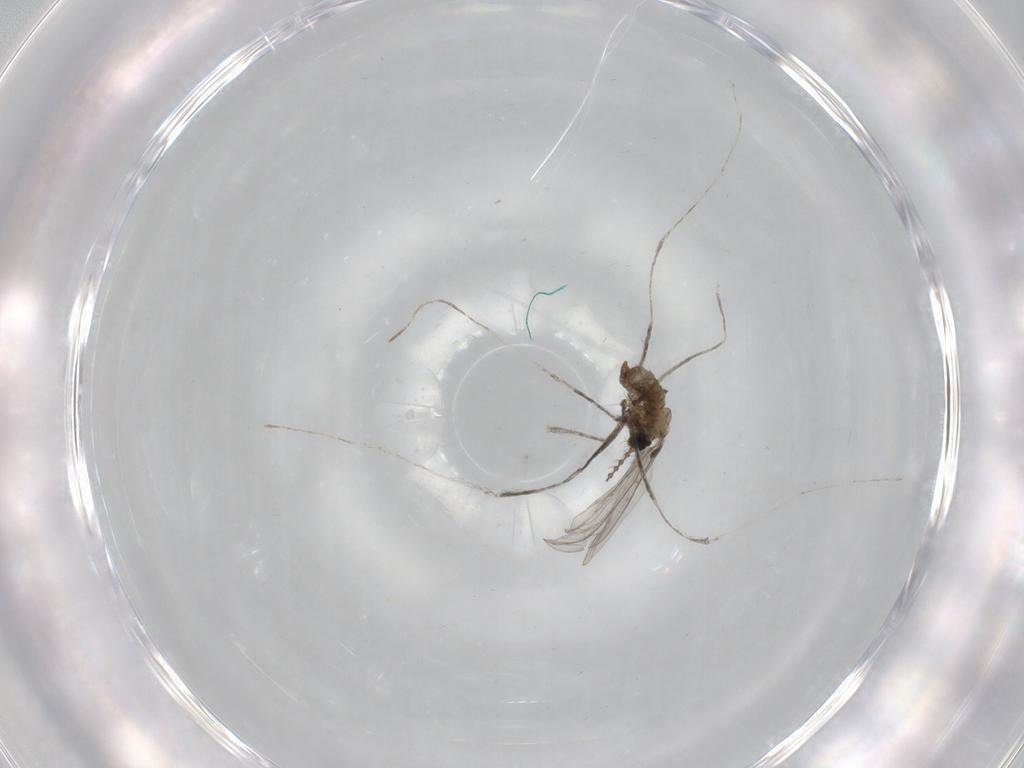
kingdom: Animalia
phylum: Arthropoda
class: Insecta
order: Diptera
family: Cecidomyiidae
